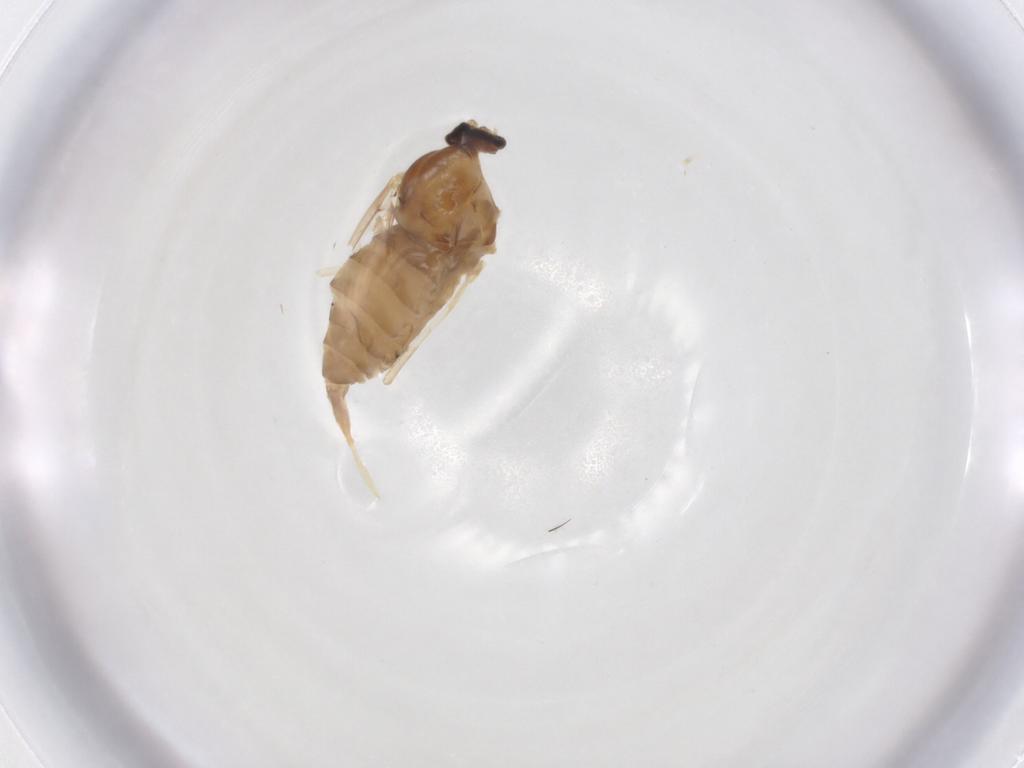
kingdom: Animalia
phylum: Arthropoda
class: Insecta
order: Diptera
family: Cecidomyiidae
